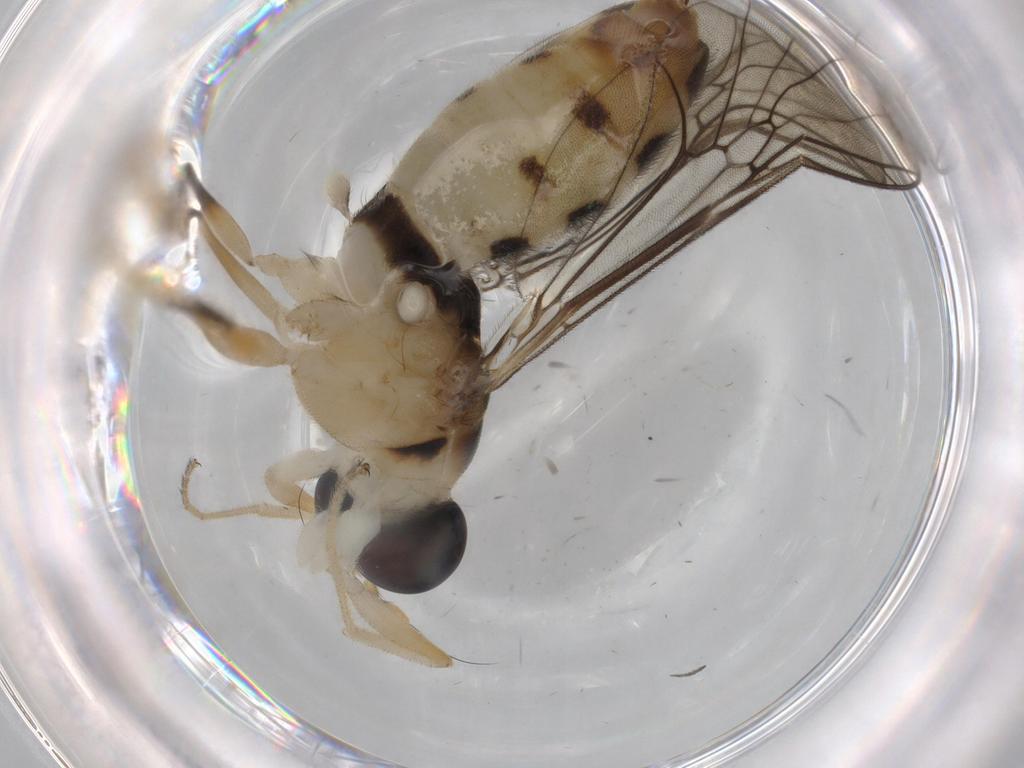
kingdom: Animalia
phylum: Arthropoda
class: Insecta
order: Diptera
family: Phoridae
